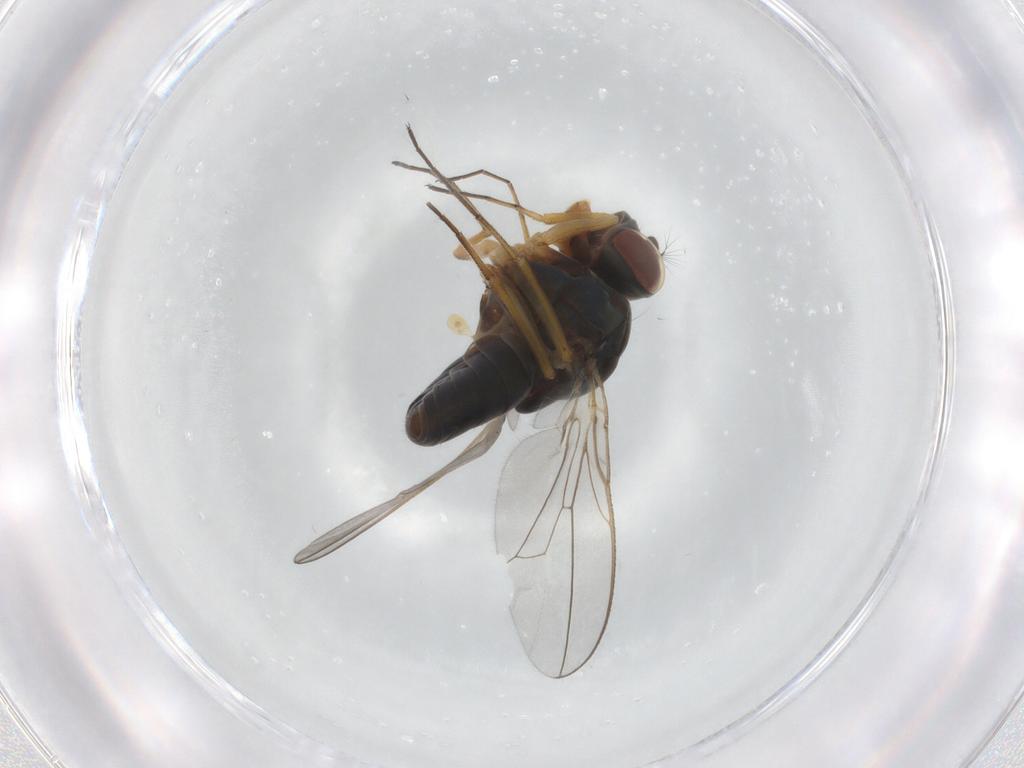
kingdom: Animalia
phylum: Arthropoda
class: Insecta
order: Diptera
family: Ephydridae
